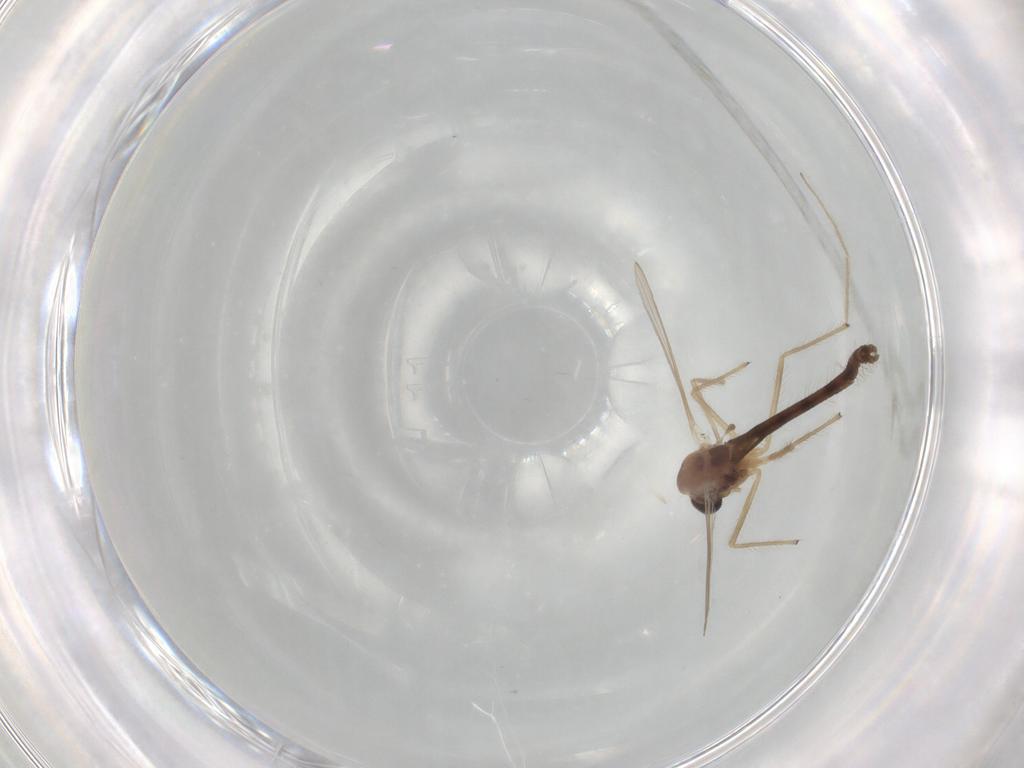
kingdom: Animalia
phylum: Arthropoda
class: Insecta
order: Diptera
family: Chironomidae
